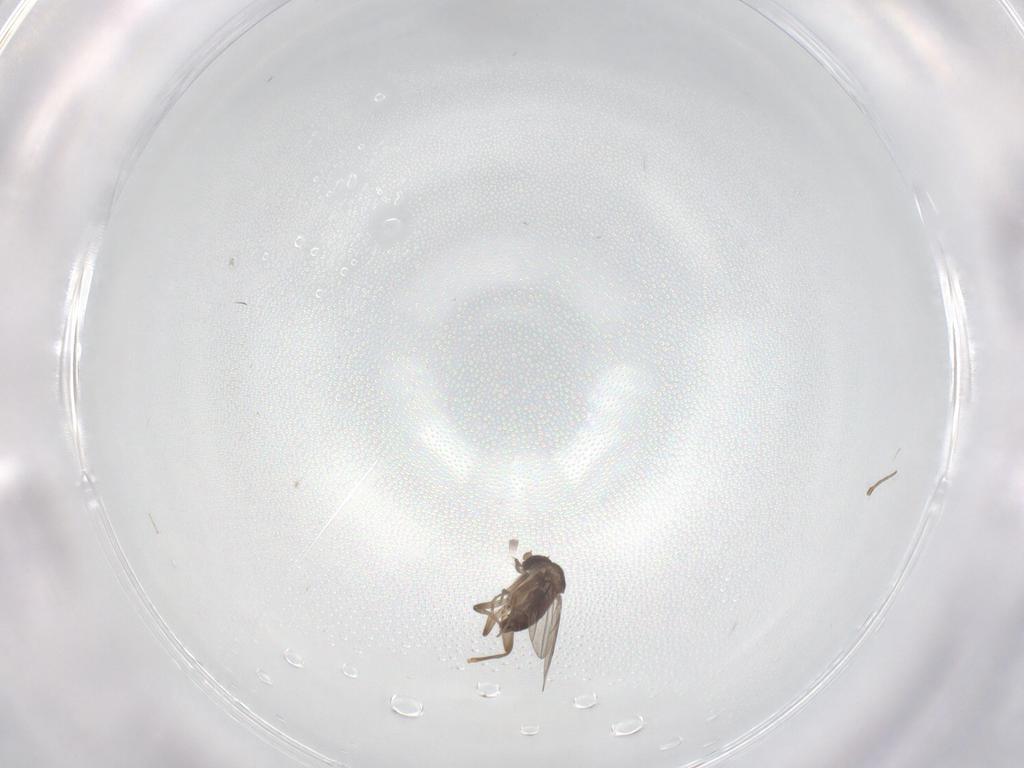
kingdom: Animalia
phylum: Arthropoda
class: Insecta
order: Diptera
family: Phoridae
